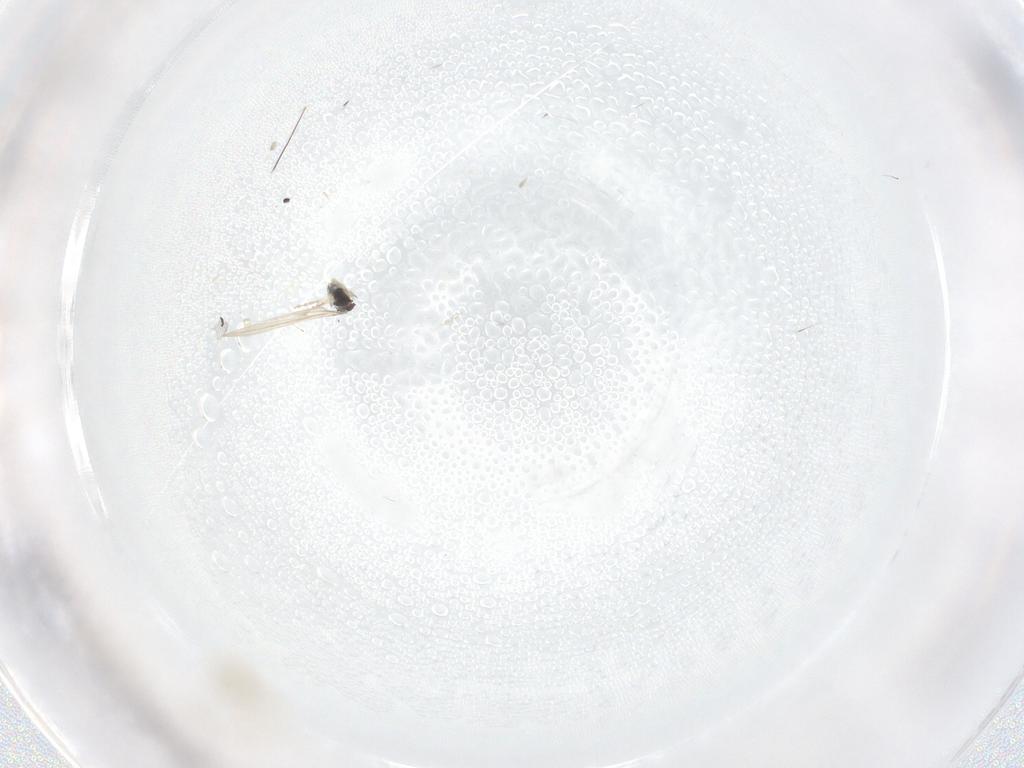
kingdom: Animalia
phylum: Arthropoda
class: Insecta
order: Diptera
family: Cecidomyiidae
